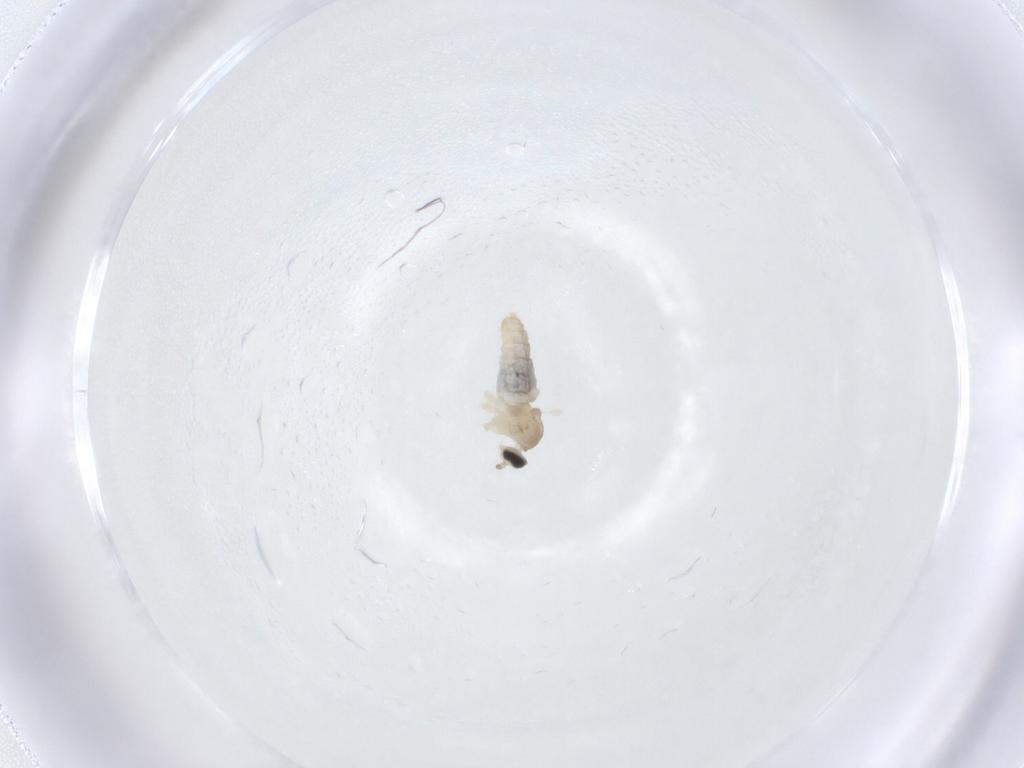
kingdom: Animalia
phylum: Arthropoda
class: Insecta
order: Diptera
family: Cecidomyiidae
